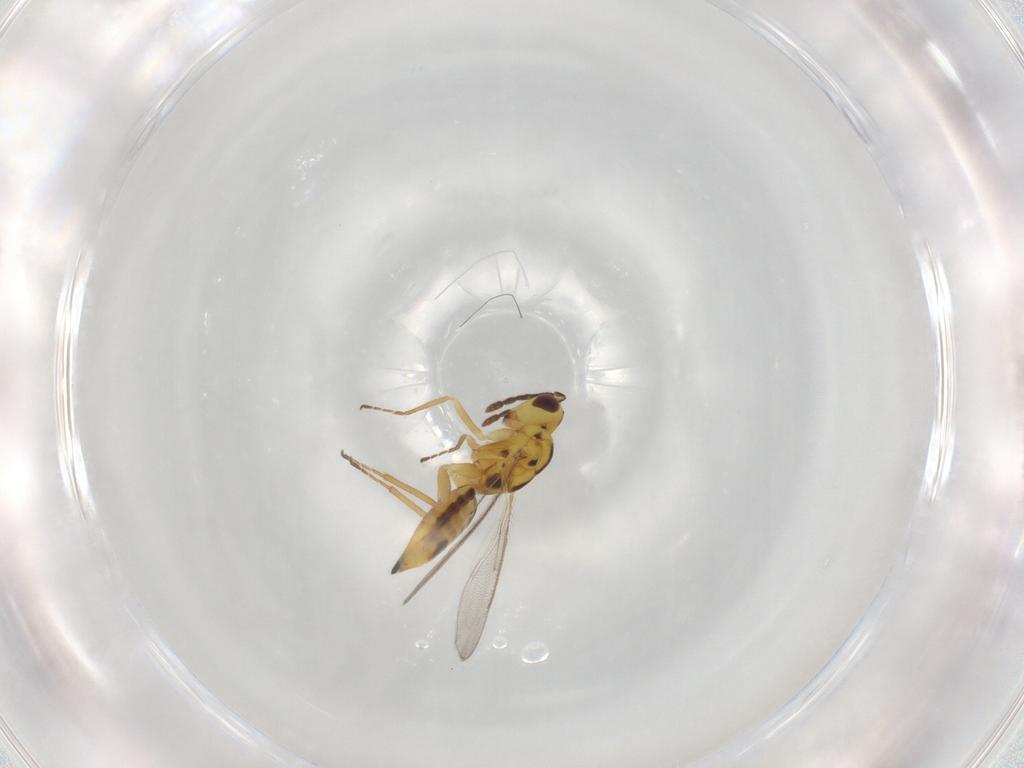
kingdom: Animalia
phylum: Arthropoda
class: Insecta
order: Hymenoptera
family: Eulophidae
